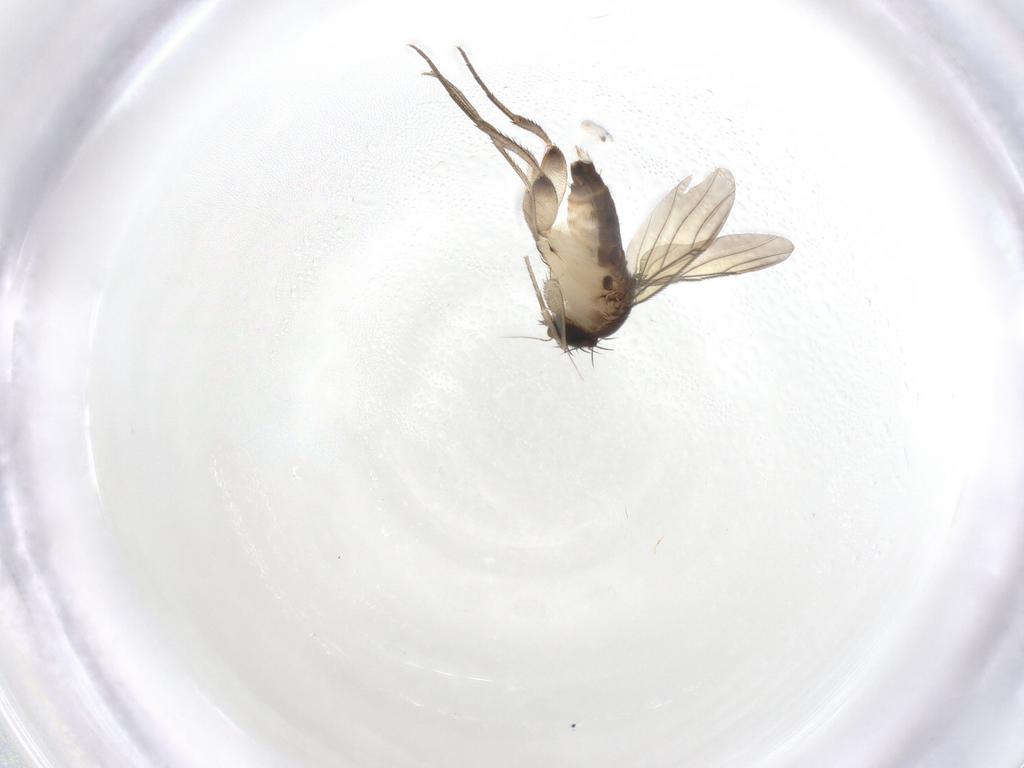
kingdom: Animalia
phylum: Arthropoda
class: Insecta
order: Diptera
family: Phoridae
